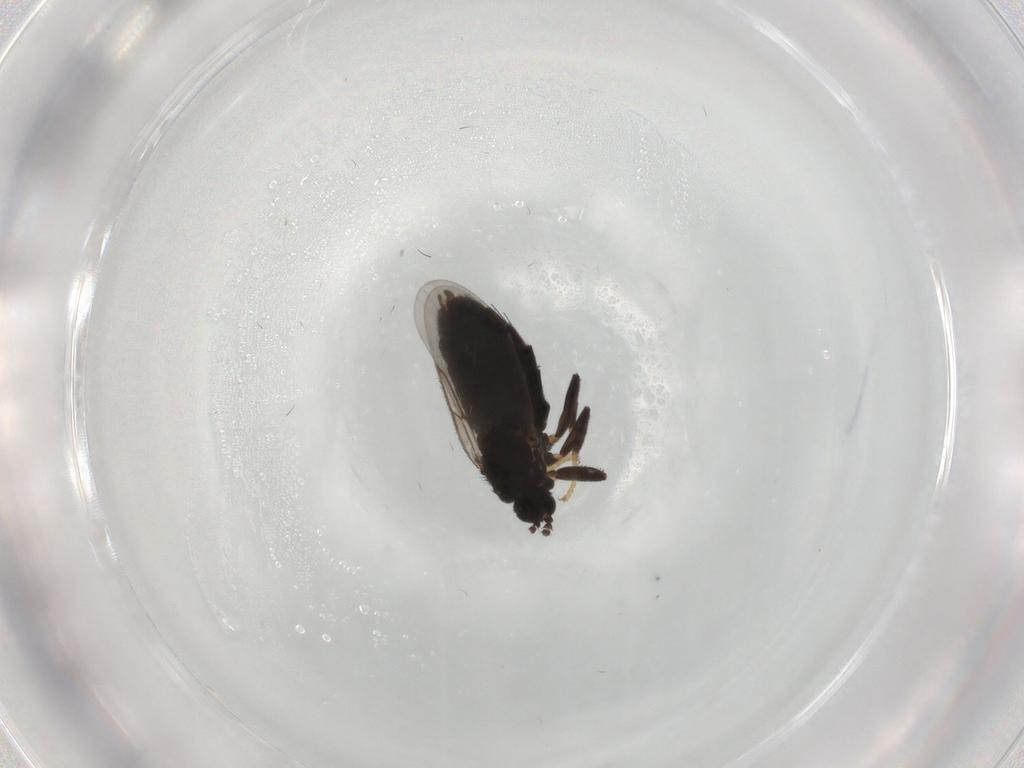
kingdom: Animalia
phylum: Arthropoda
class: Insecta
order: Diptera
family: Scatopsidae
